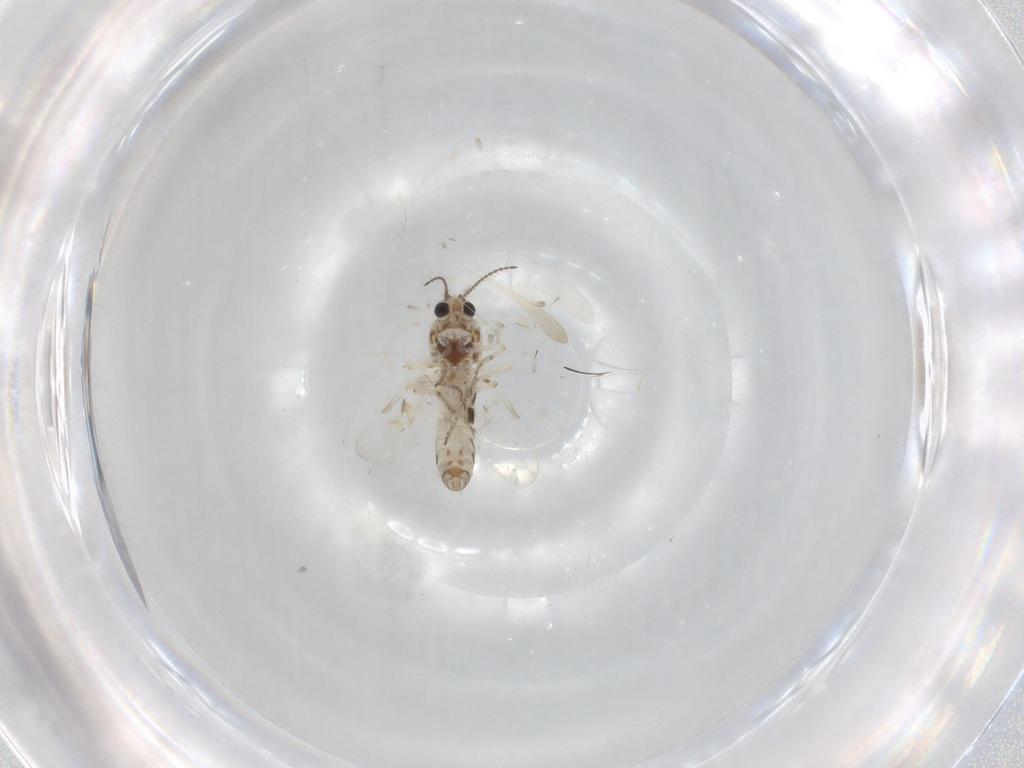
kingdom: Animalia
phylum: Arthropoda
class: Insecta
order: Diptera
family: Ceratopogonidae
